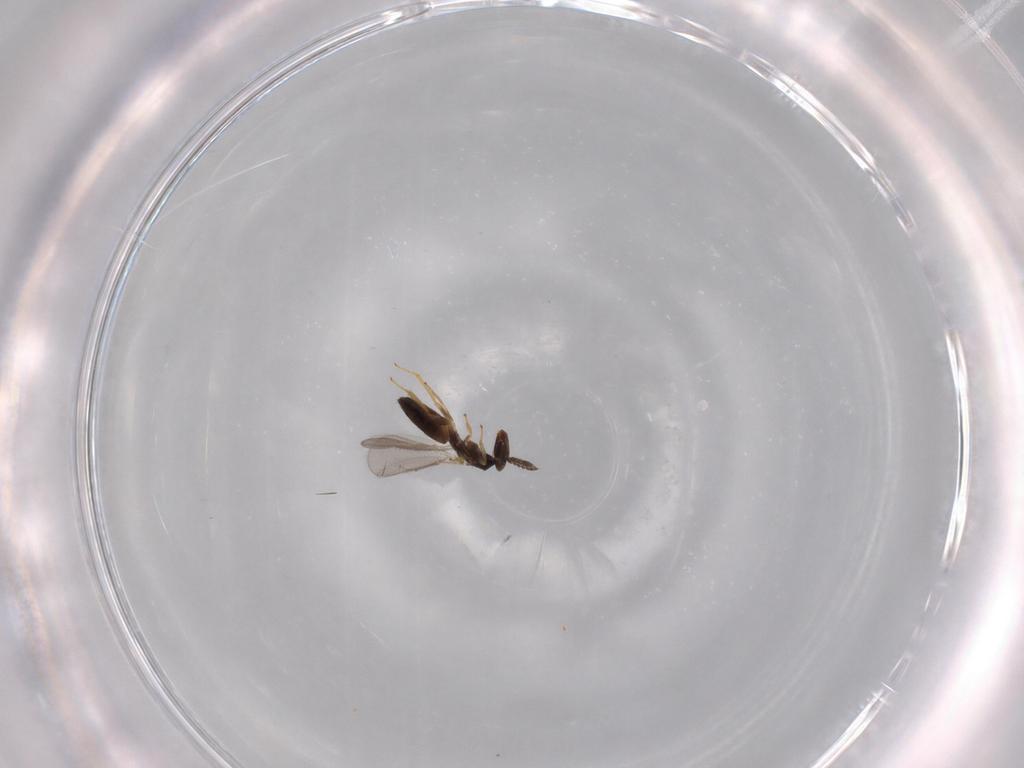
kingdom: Animalia
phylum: Arthropoda
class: Insecta
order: Hymenoptera
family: Eulophidae
